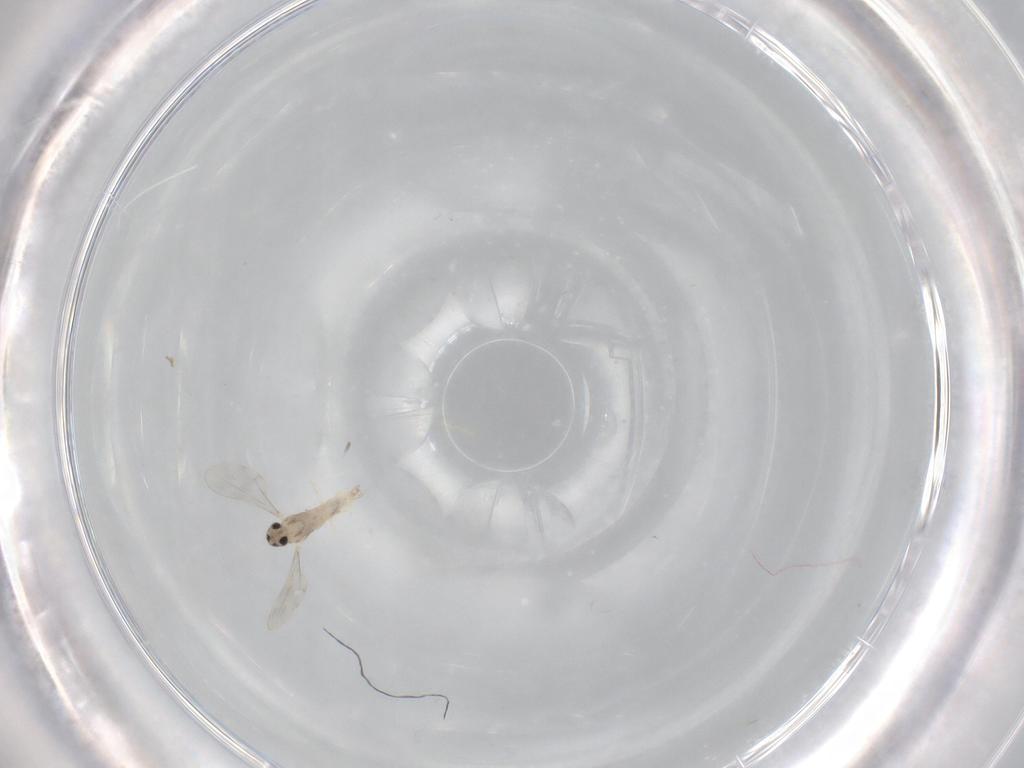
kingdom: Animalia
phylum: Arthropoda
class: Insecta
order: Diptera
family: Cecidomyiidae
